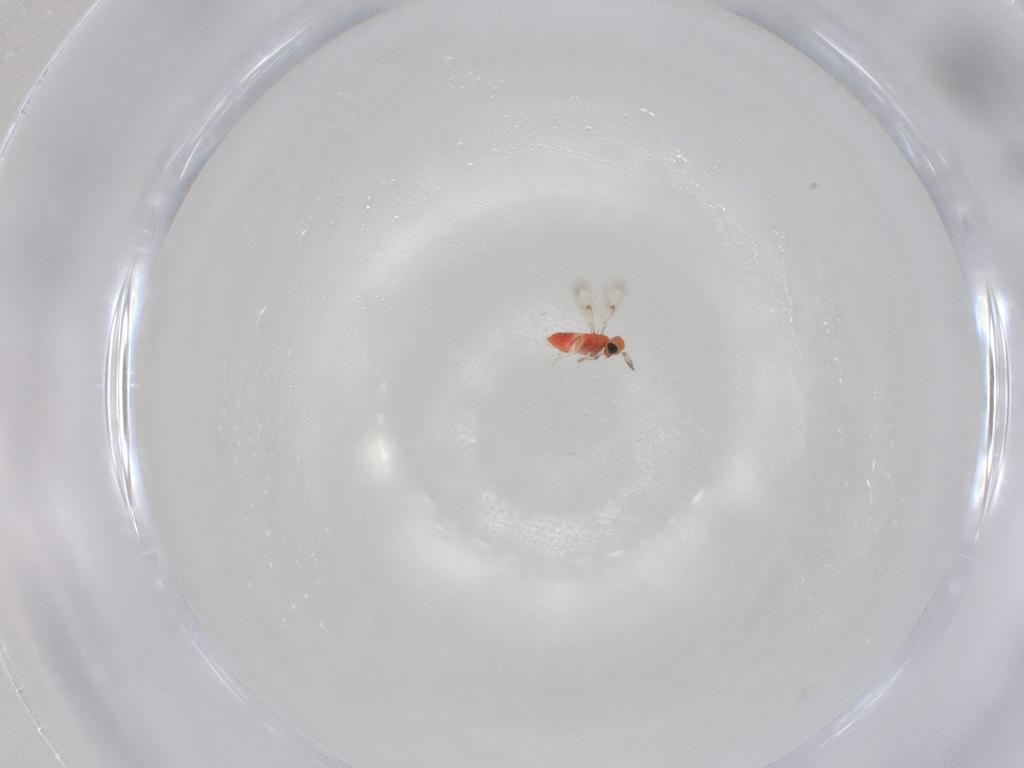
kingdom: Animalia
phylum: Arthropoda
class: Insecta
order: Hymenoptera
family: Trichogrammatidae
